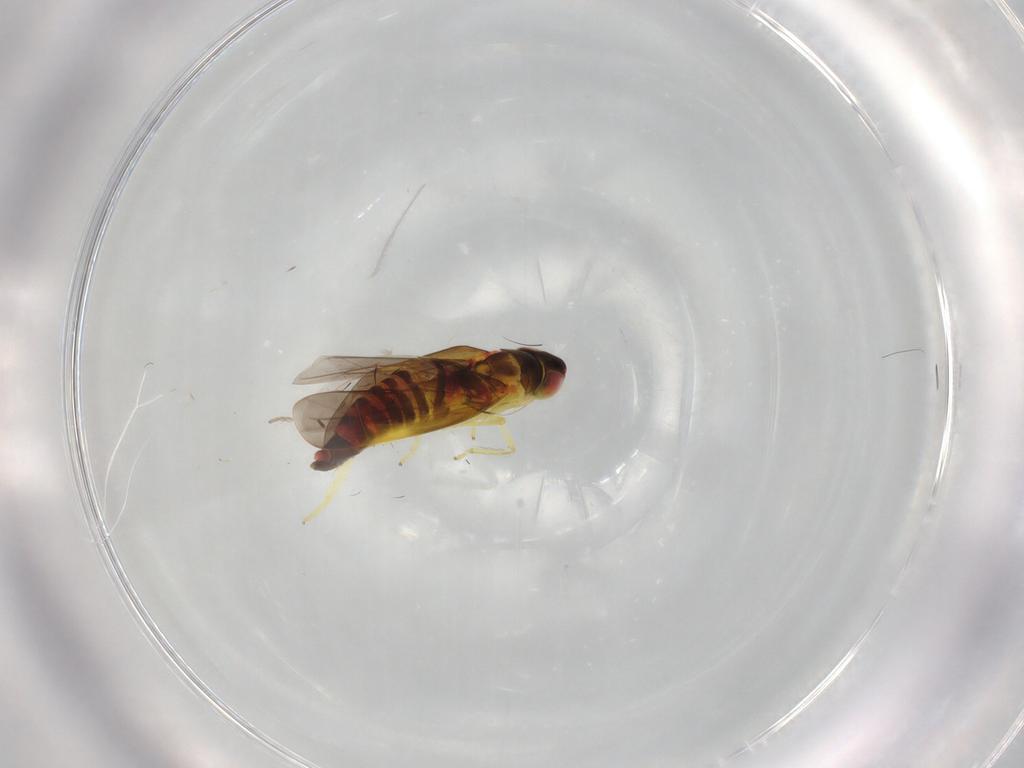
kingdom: Animalia
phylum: Arthropoda
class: Insecta
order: Hemiptera
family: Cicadellidae
